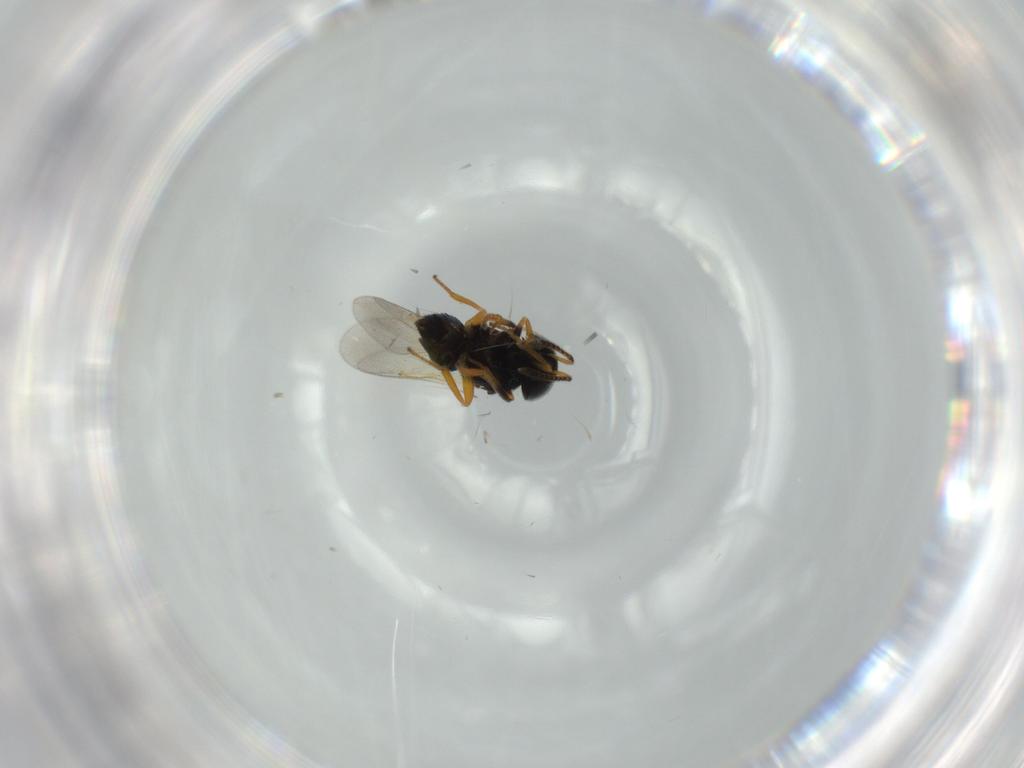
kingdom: Animalia
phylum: Arthropoda
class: Insecta
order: Hymenoptera
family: Encyrtidae
